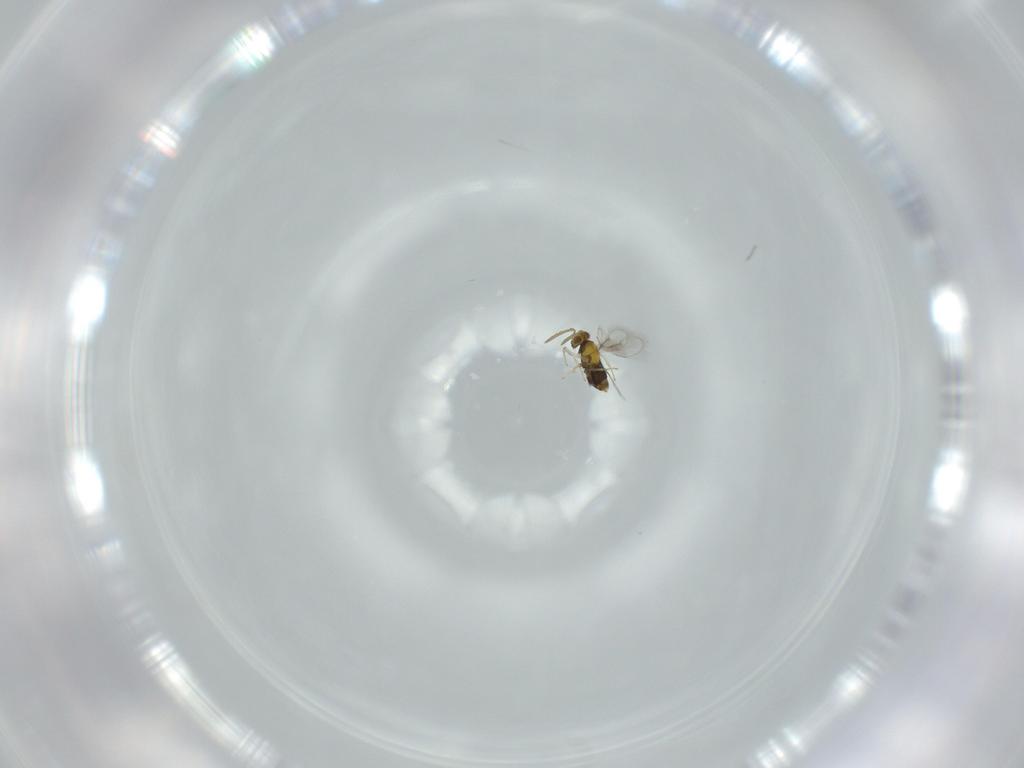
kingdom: Animalia
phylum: Arthropoda
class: Insecta
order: Hymenoptera
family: Aphelinidae
